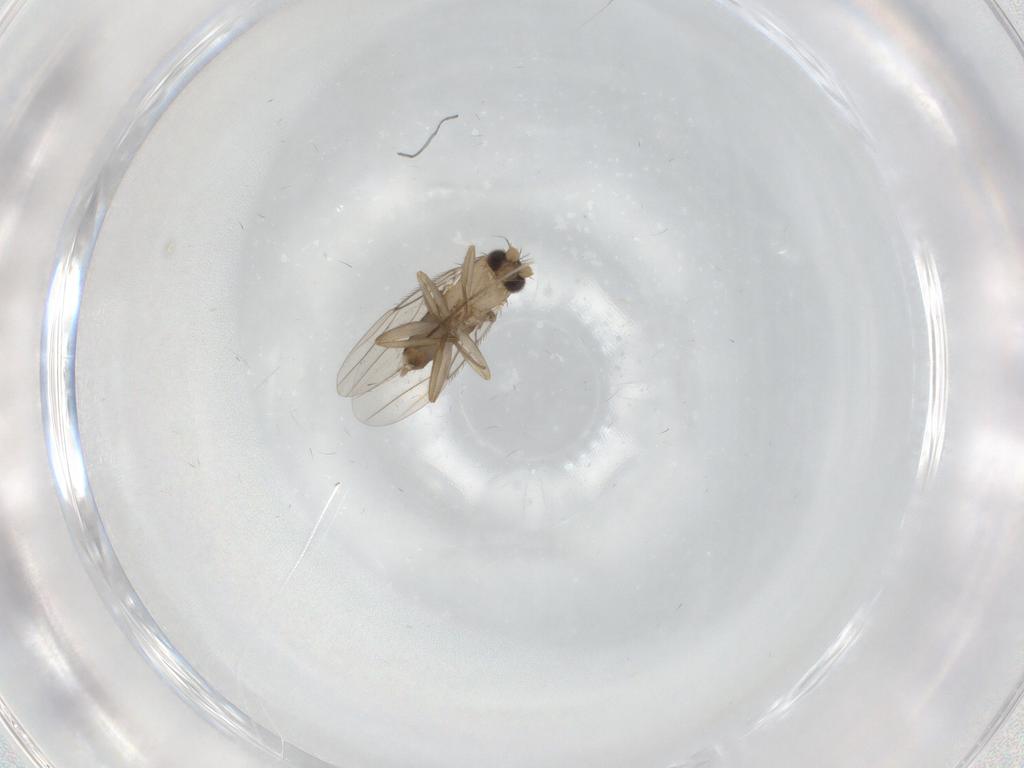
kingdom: Animalia
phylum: Arthropoda
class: Insecta
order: Diptera
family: Phoridae
